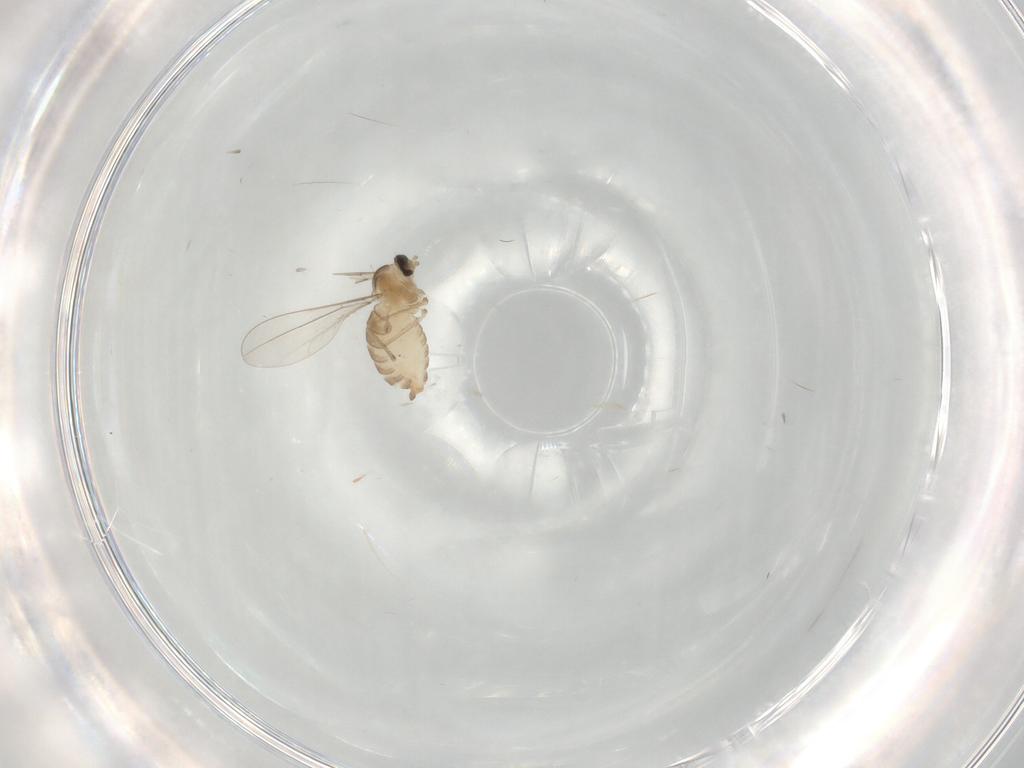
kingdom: Animalia
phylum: Arthropoda
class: Insecta
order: Diptera
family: Cecidomyiidae
